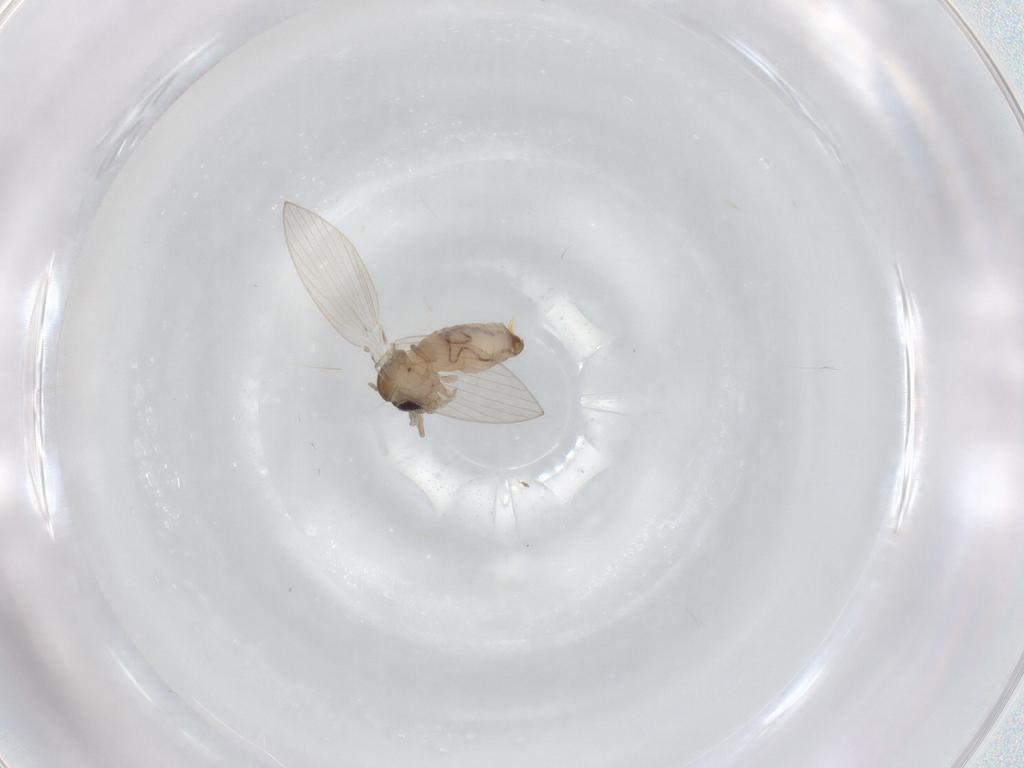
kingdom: Animalia
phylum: Arthropoda
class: Insecta
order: Diptera
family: Psychodidae
